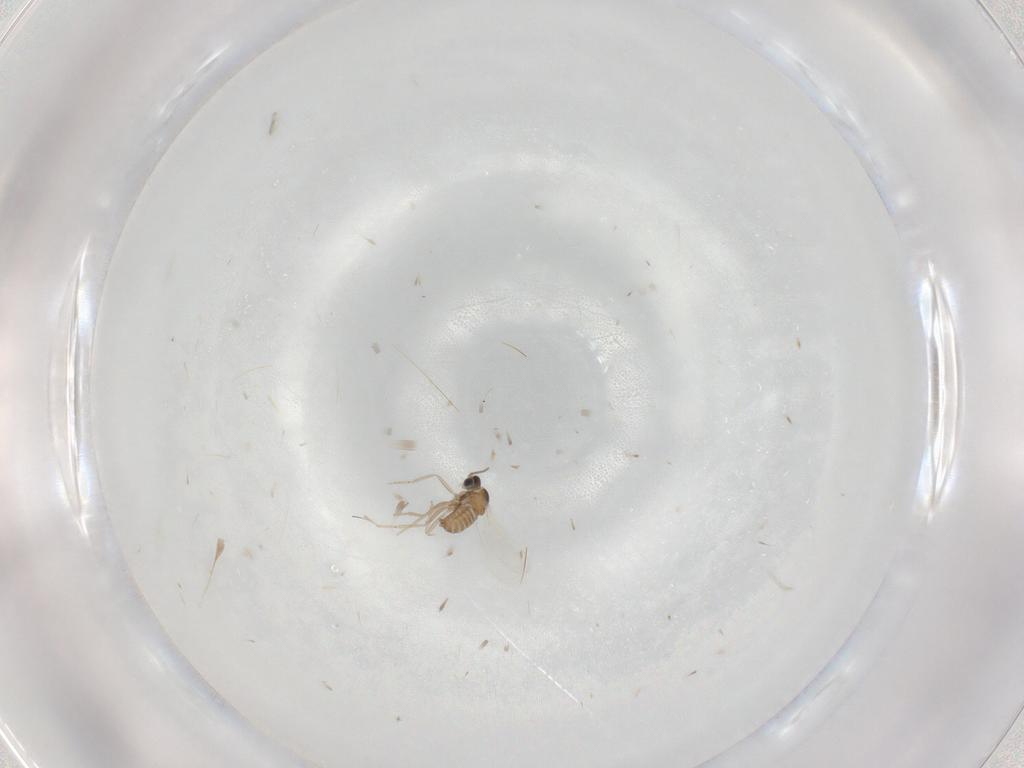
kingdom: Animalia
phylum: Arthropoda
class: Insecta
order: Diptera
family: Cecidomyiidae
